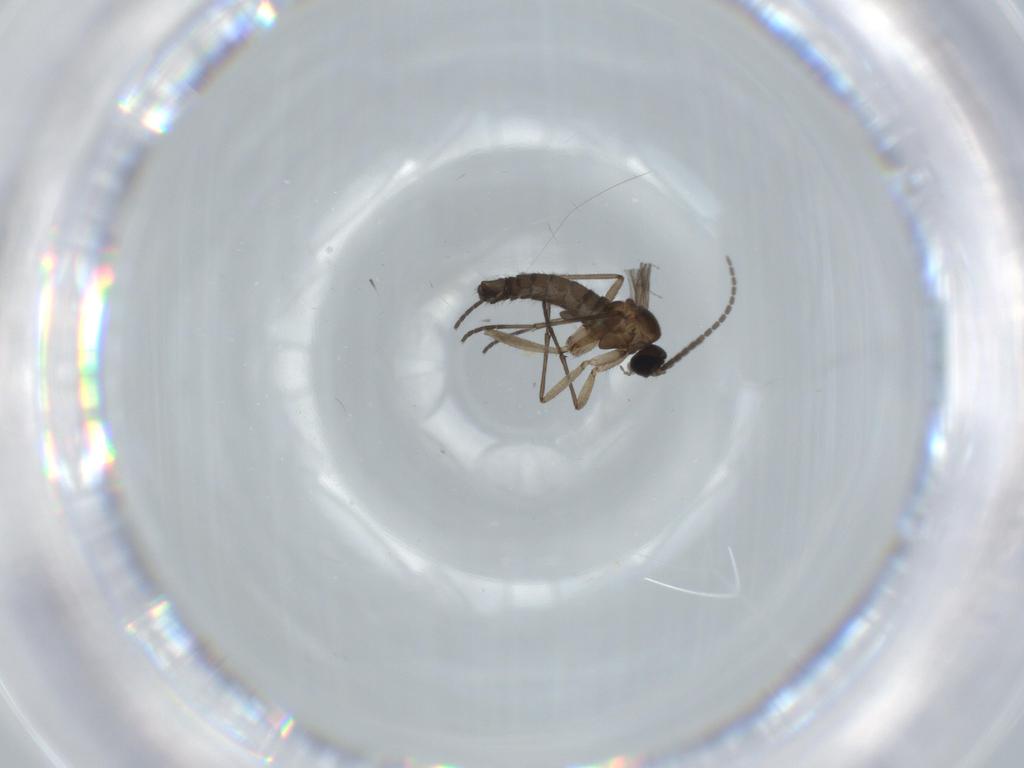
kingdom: Animalia
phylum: Arthropoda
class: Insecta
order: Diptera
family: Sciaridae
